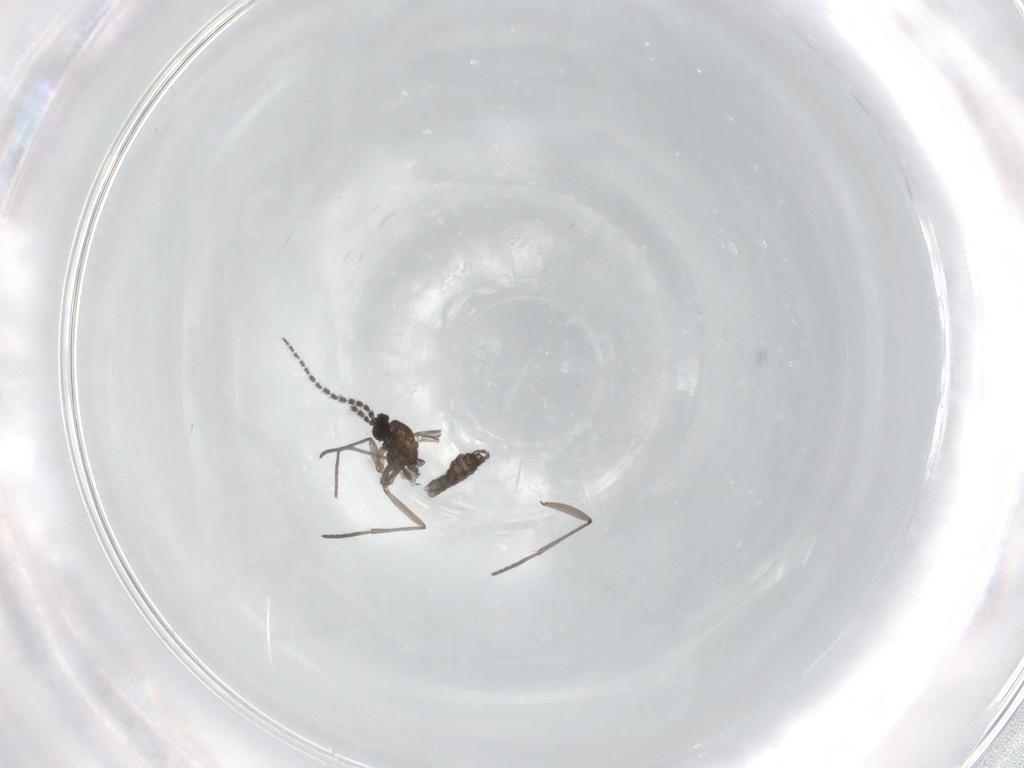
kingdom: Animalia
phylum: Arthropoda
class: Insecta
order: Diptera
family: Cecidomyiidae
